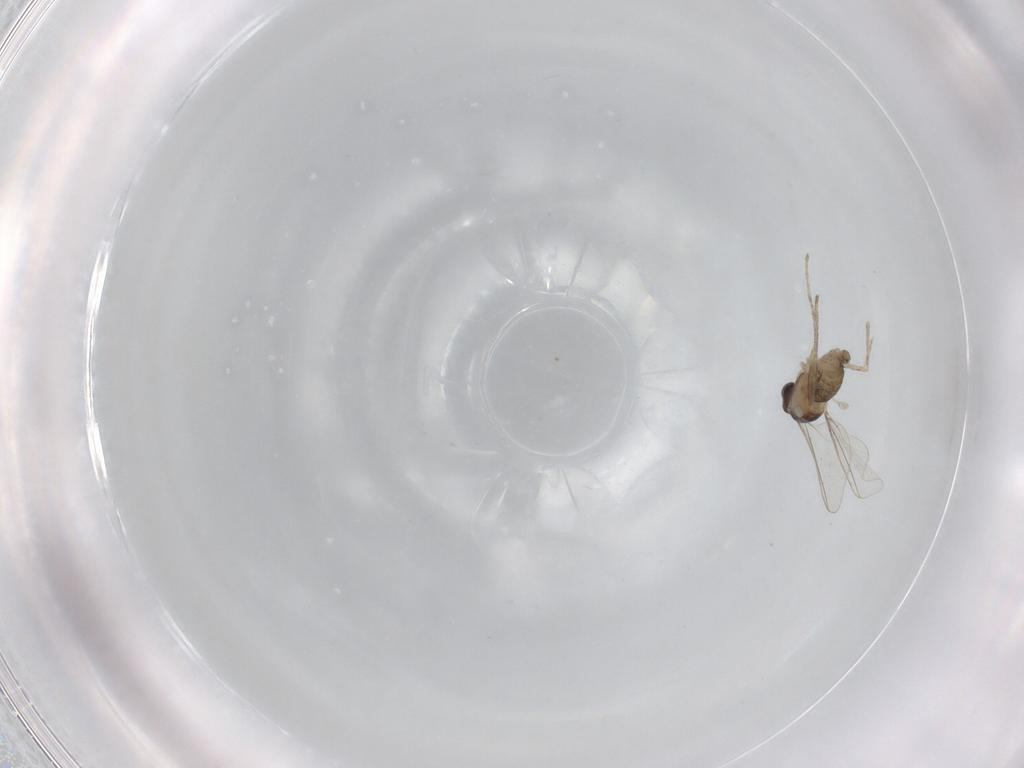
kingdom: Animalia
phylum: Arthropoda
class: Insecta
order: Diptera
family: Cecidomyiidae
